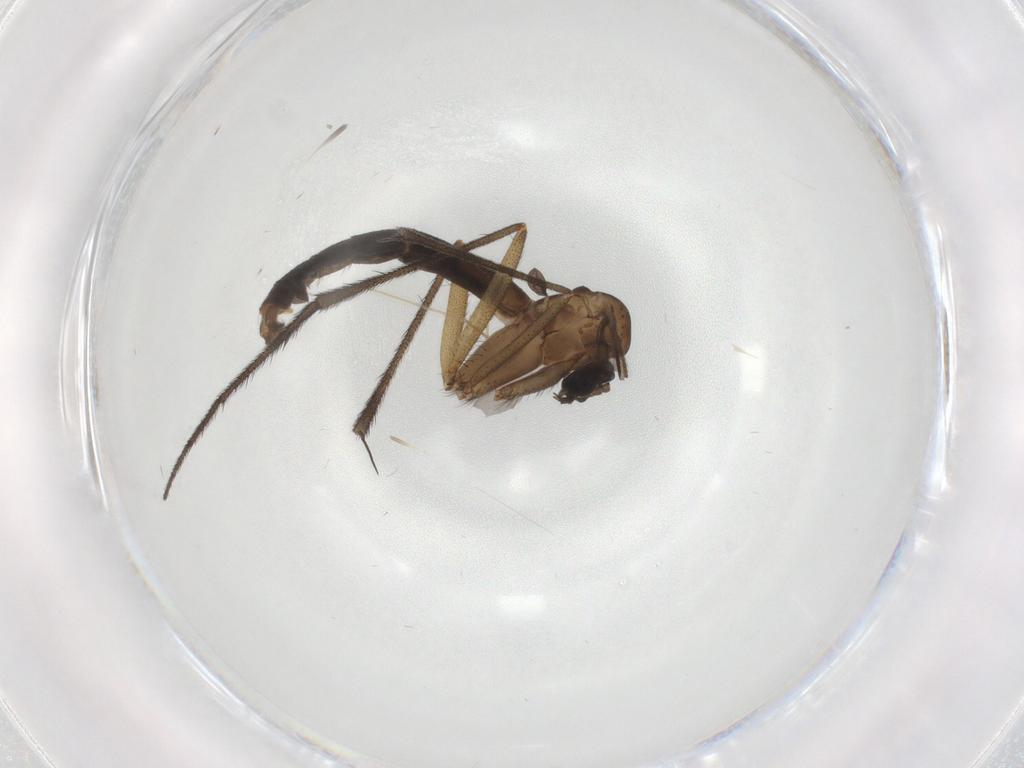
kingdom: Animalia
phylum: Arthropoda
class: Insecta
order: Diptera
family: Ditomyiidae
